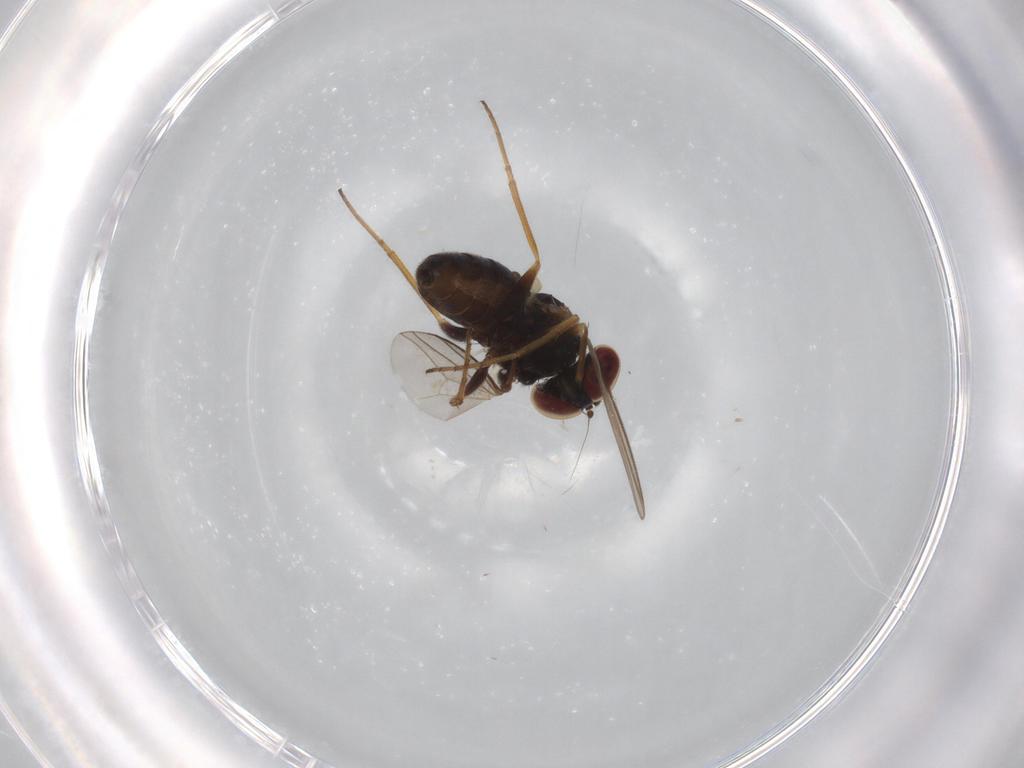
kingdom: Animalia
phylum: Arthropoda
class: Insecta
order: Diptera
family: Dolichopodidae
